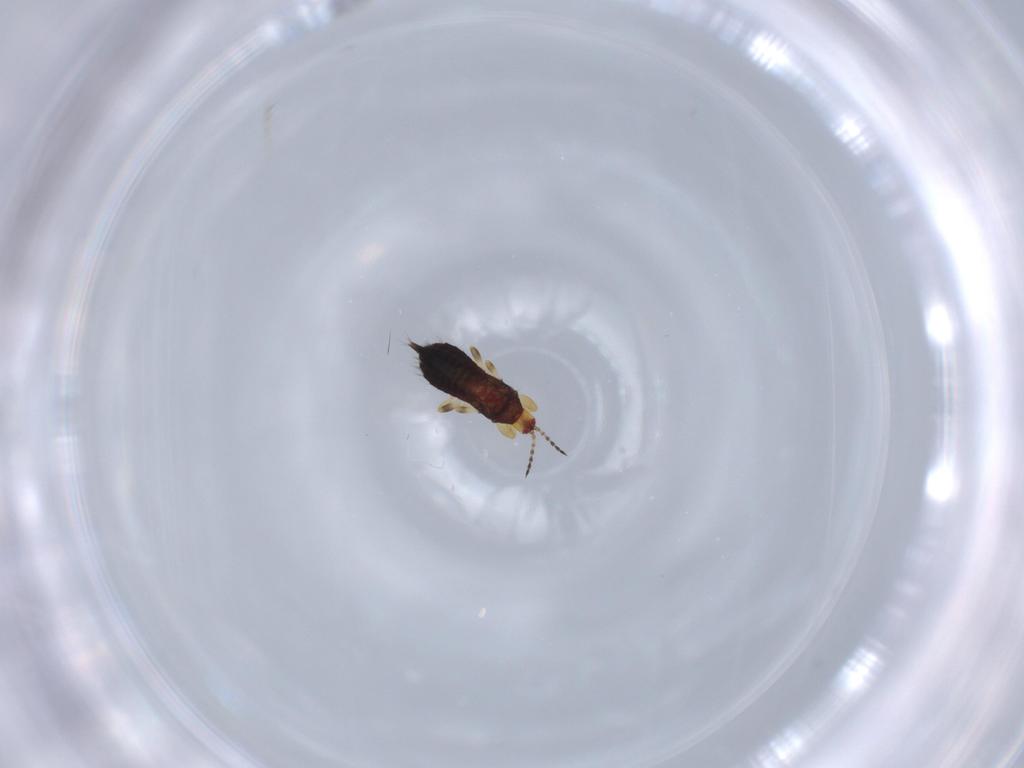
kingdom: Animalia
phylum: Arthropoda
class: Insecta
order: Thysanoptera
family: Phlaeothripidae
